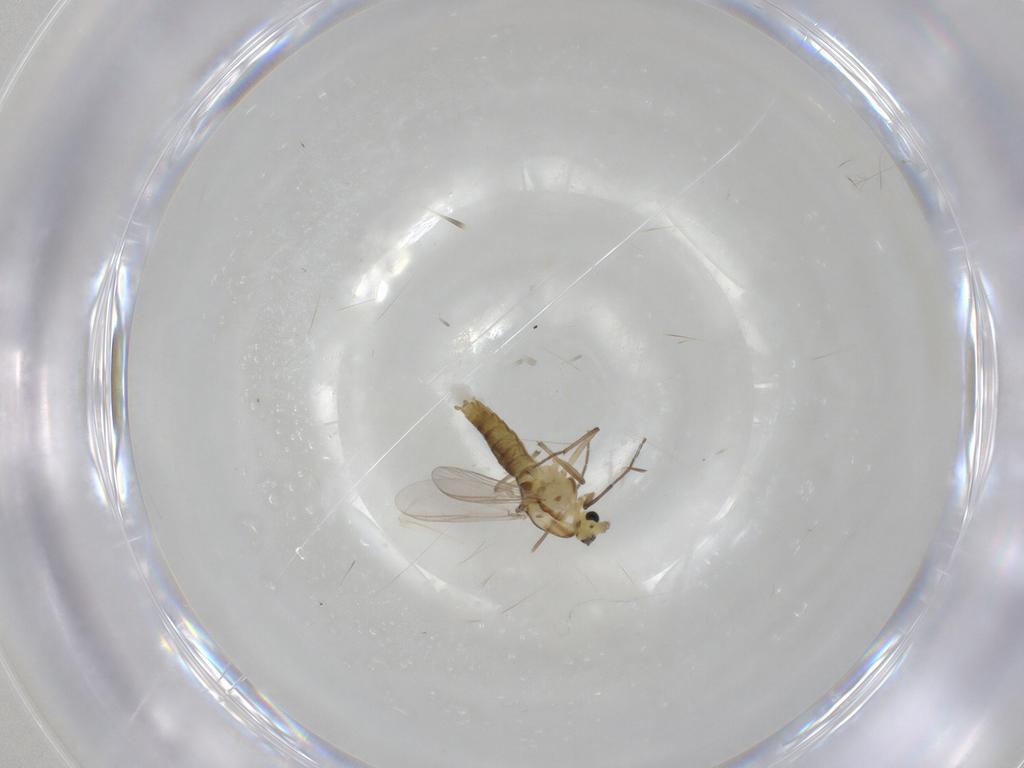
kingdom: Animalia
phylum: Arthropoda
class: Insecta
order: Diptera
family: Chironomidae
